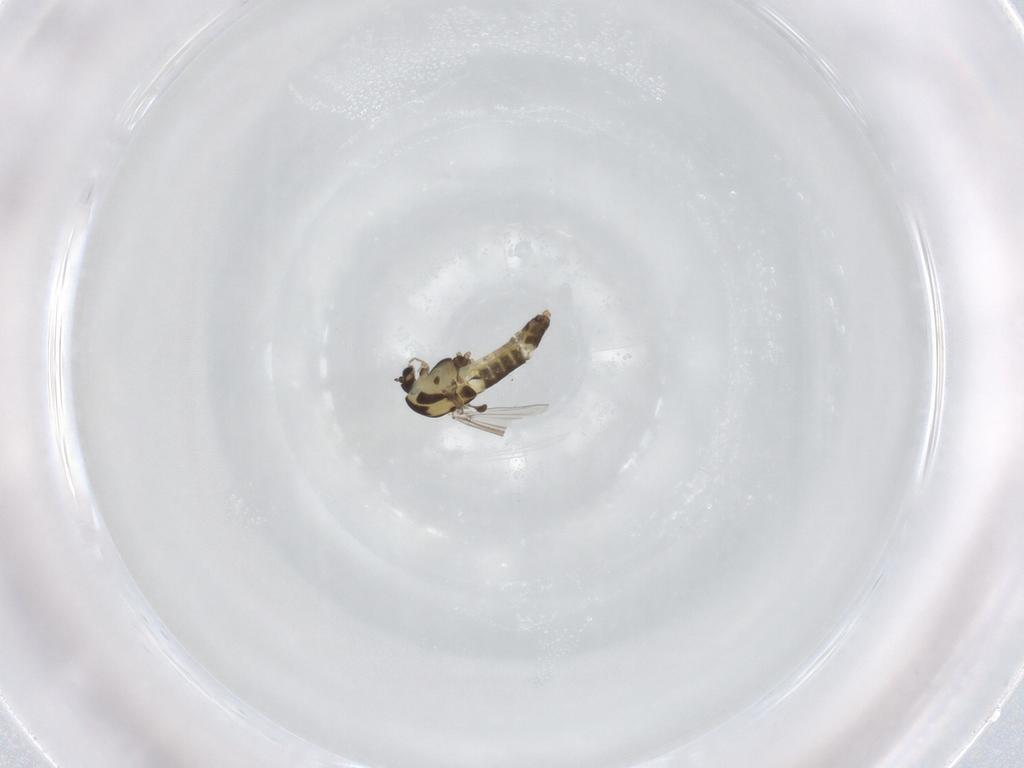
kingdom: Animalia
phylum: Arthropoda
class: Insecta
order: Diptera
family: Chironomidae
